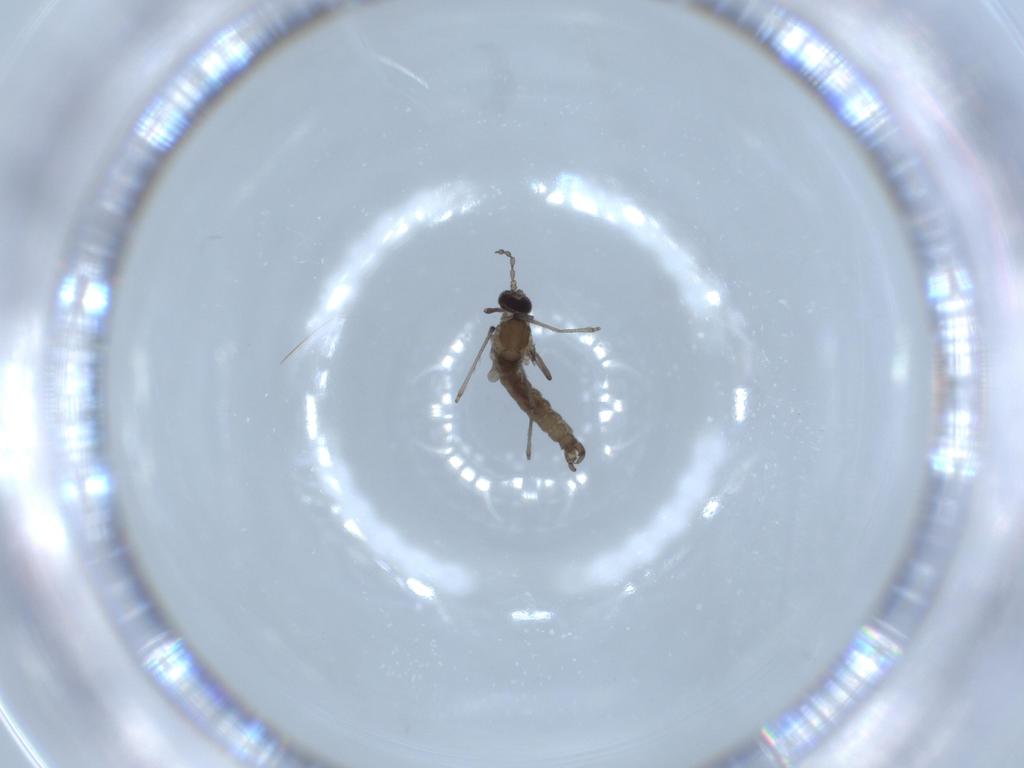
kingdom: Animalia
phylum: Arthropoda
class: Insecta
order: Diptera
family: Cecidomyiidae
